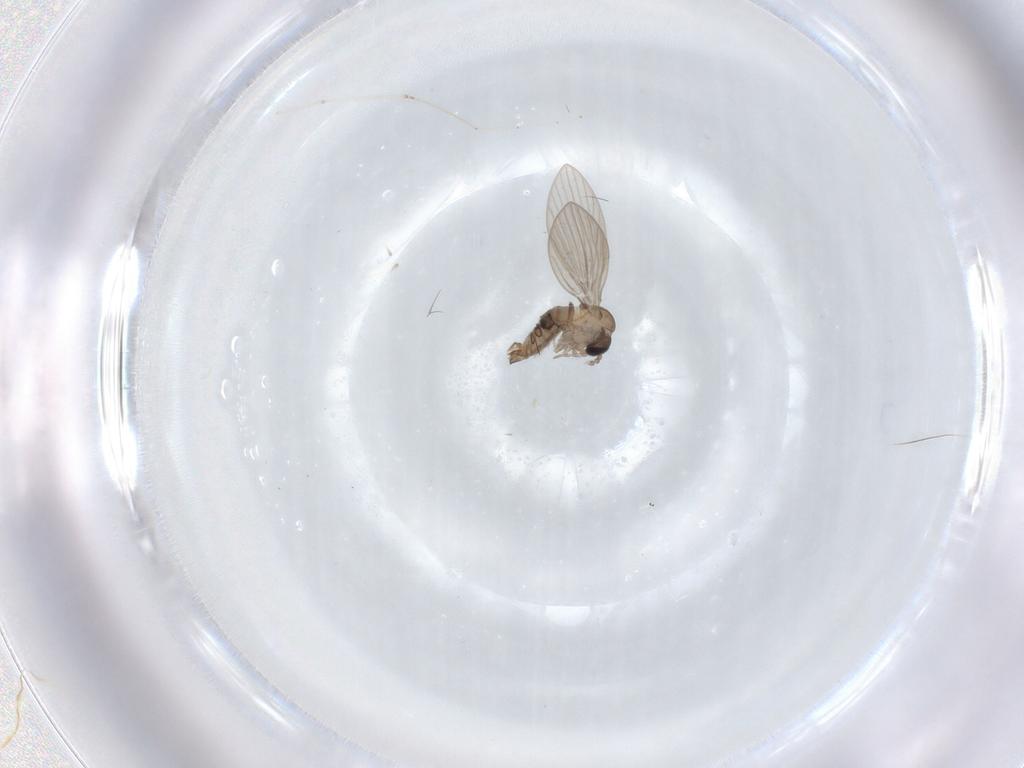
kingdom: Animalia
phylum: Arthropoda
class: Insecta
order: Diptera
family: Psychodidae
